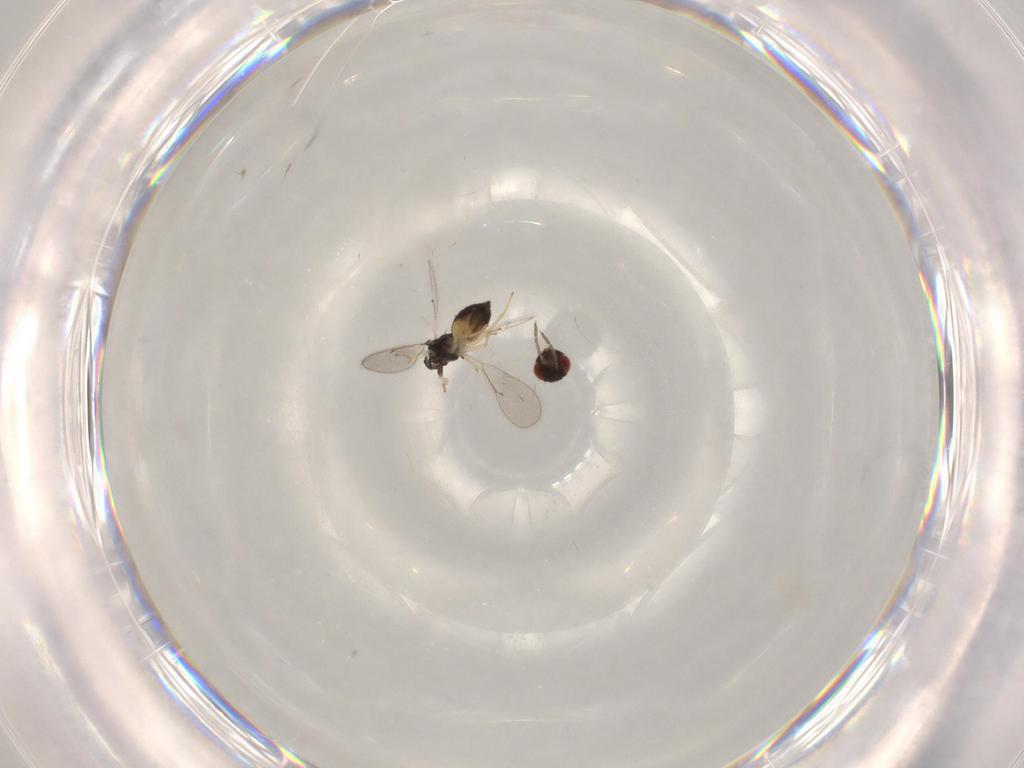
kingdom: Animalia
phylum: Arthropoda
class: Insecta
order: Hymenoptera
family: Eulophidae
